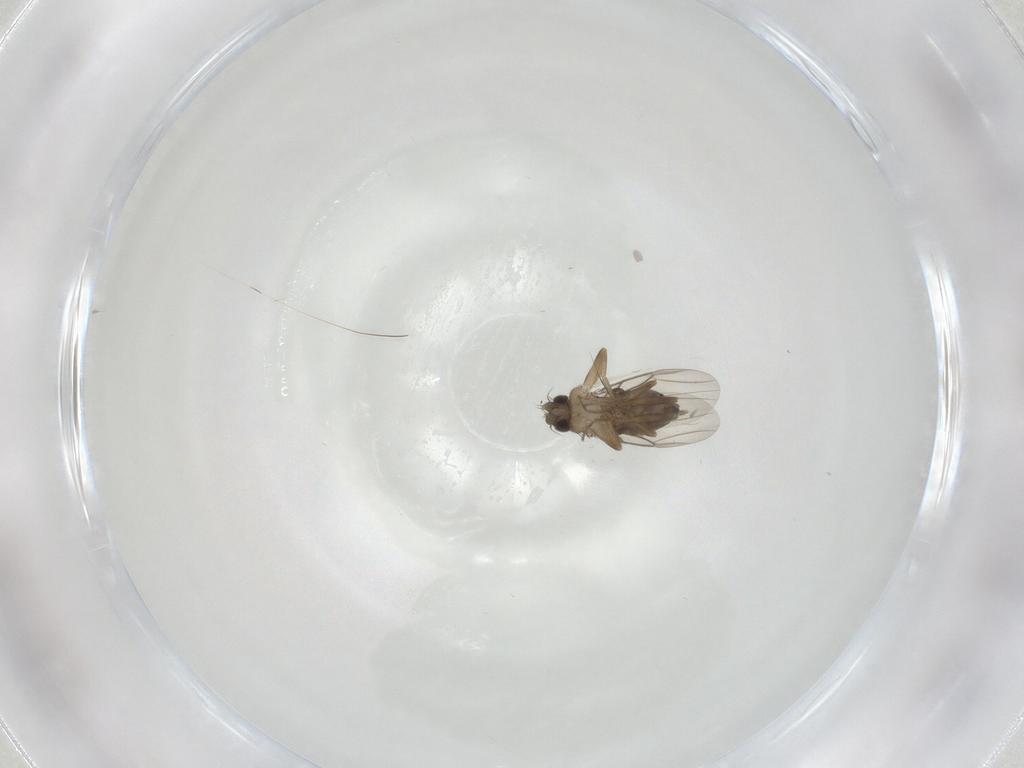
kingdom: Animalia
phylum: Arthropoda
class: Insecta
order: Diptera
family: Phoridae
